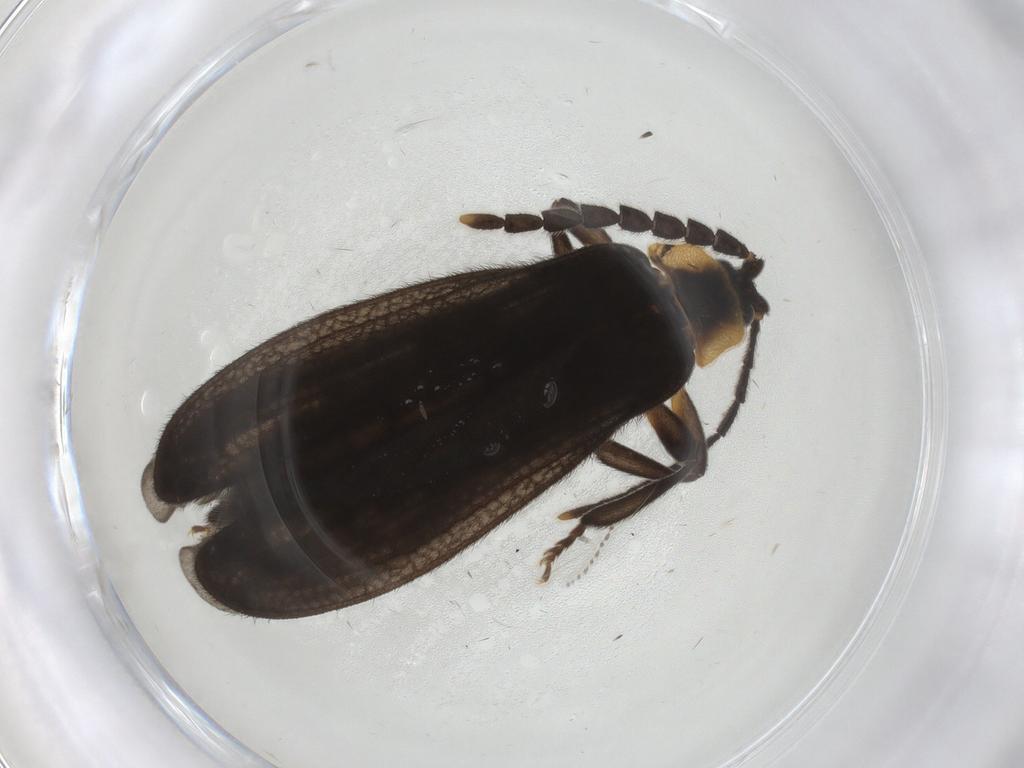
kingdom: Animalia
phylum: Arthropoda
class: Insecta
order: Coleoptera
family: Lycidae
